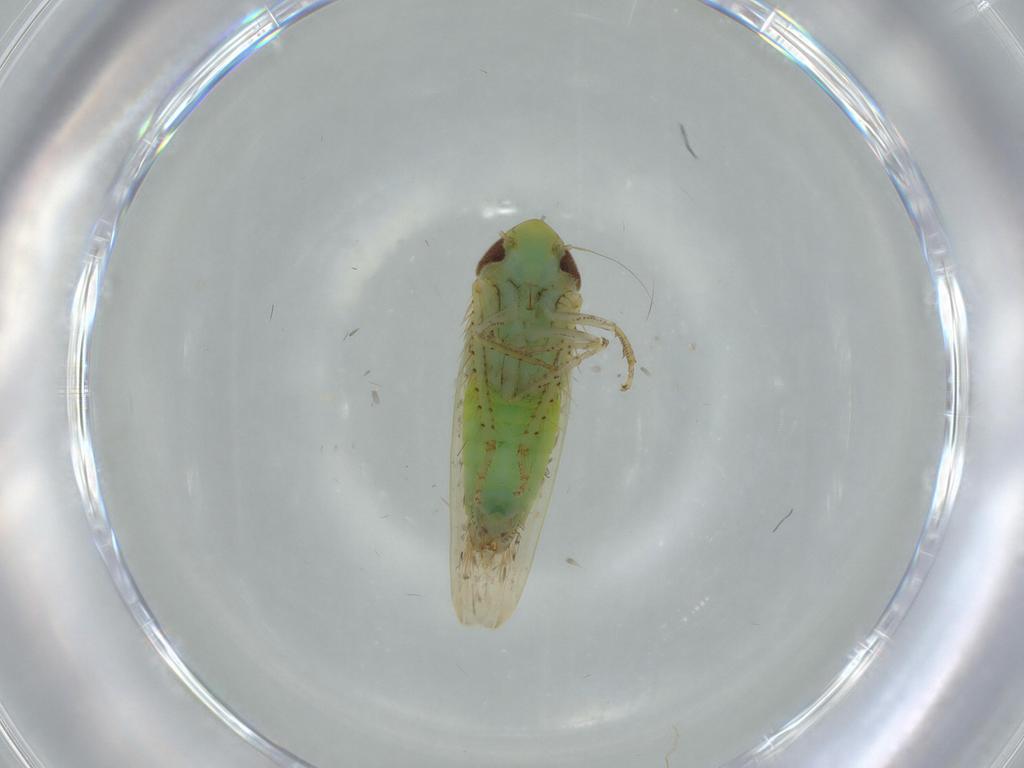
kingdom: Animalia
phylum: Arthropoda
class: Insecta
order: Hemiptera
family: Cicadellidae
